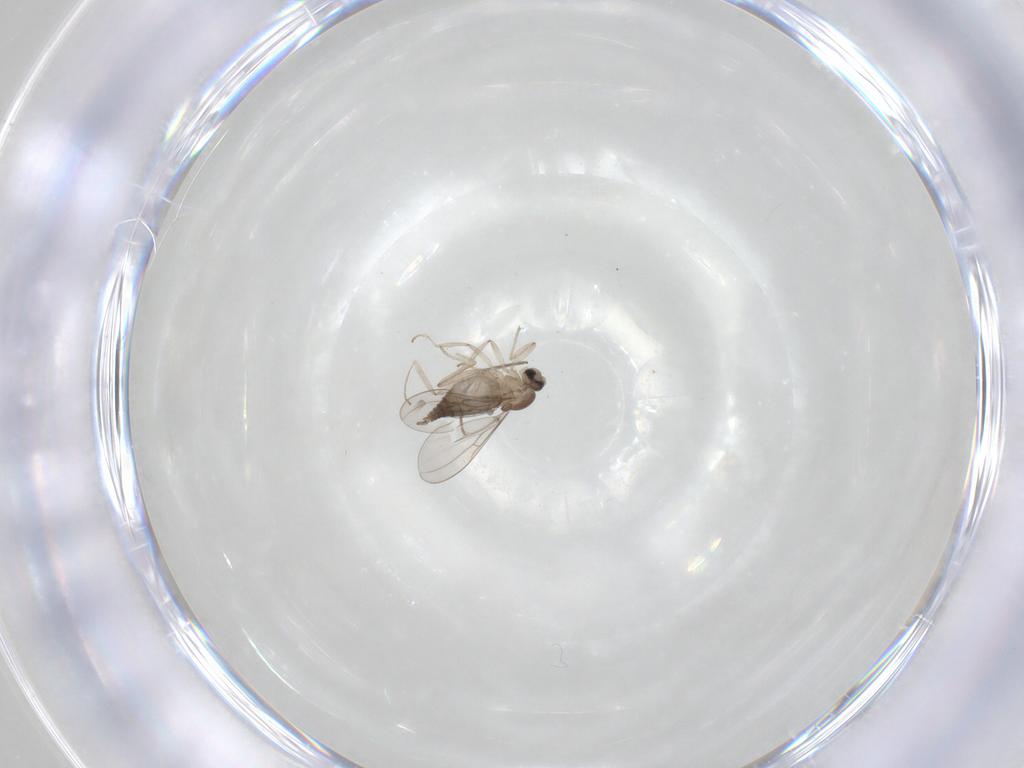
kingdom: Animalia
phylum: Arthropoda
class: Insecta
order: Diptera
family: Cecidomyiidae
